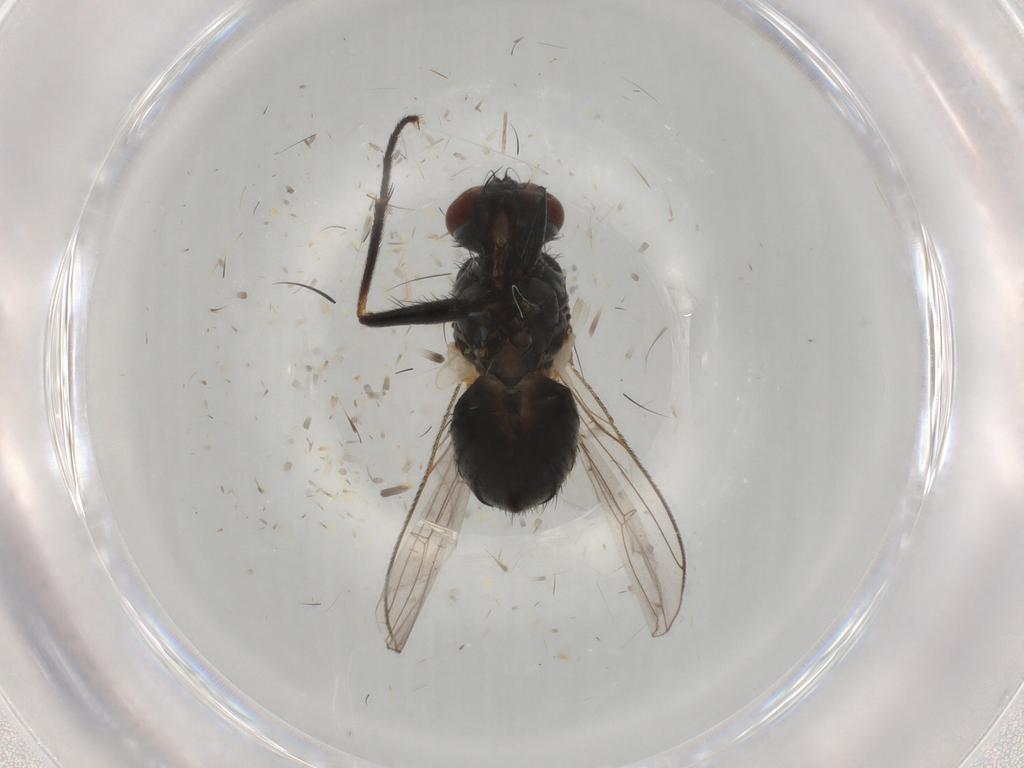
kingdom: Animalia
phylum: Arthropoda
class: Insecta
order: Diptera
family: Muscidae
